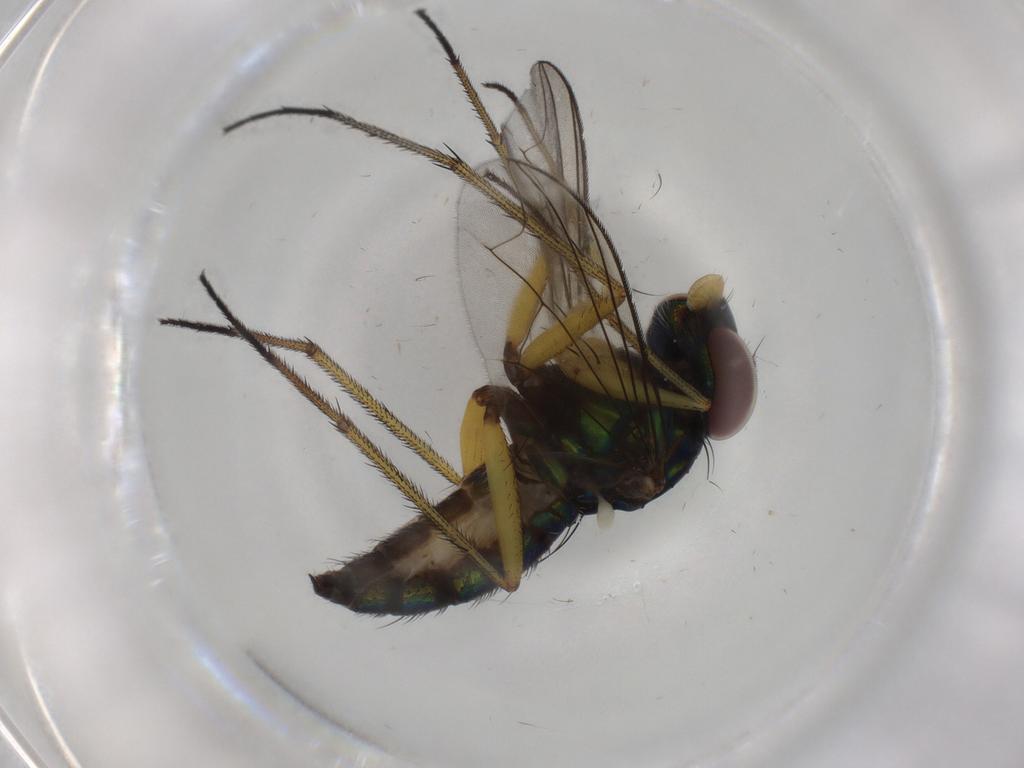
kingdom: Animalia
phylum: Arthropoda
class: Insecta
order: Diptera
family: Dolichopodidae
